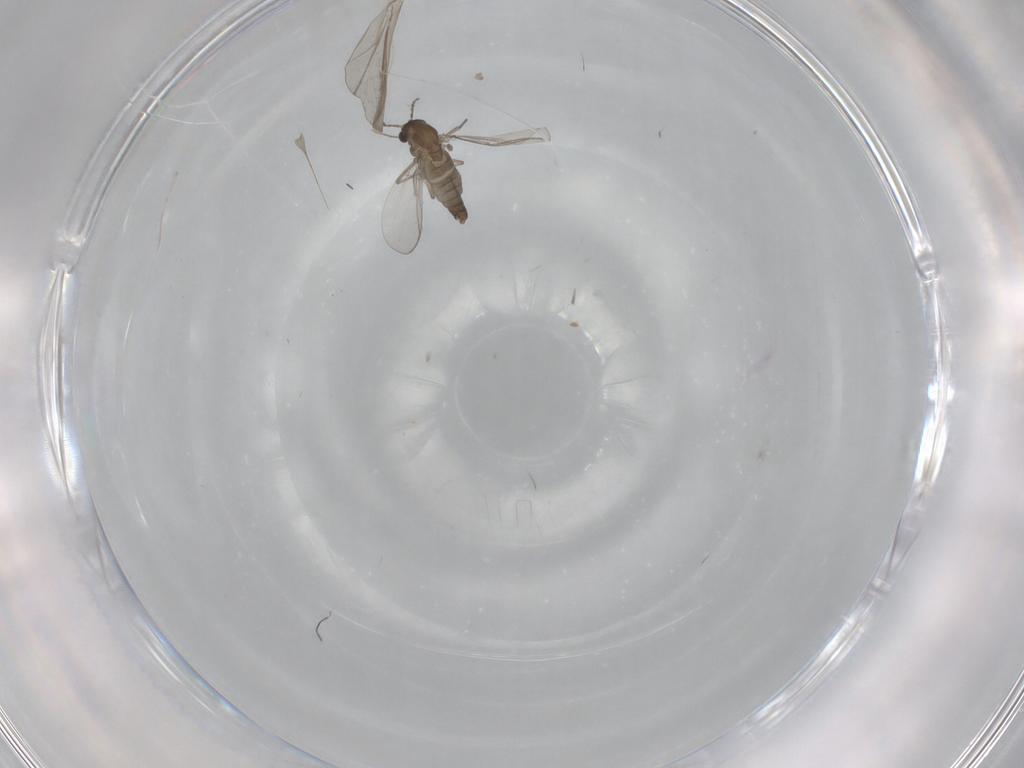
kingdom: Animalia
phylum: Arthropoda
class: Insecta
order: Diptera
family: Chironomidae
